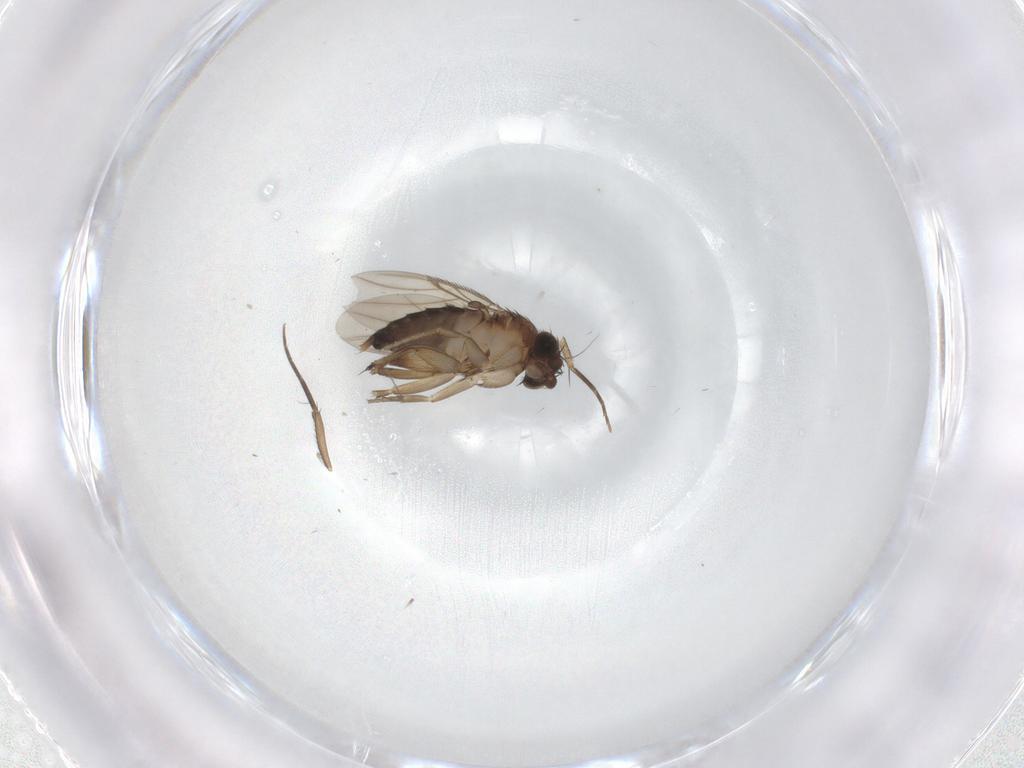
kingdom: Animalia
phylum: Arthropoda
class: Insecta
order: Diptera
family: Phoridae
